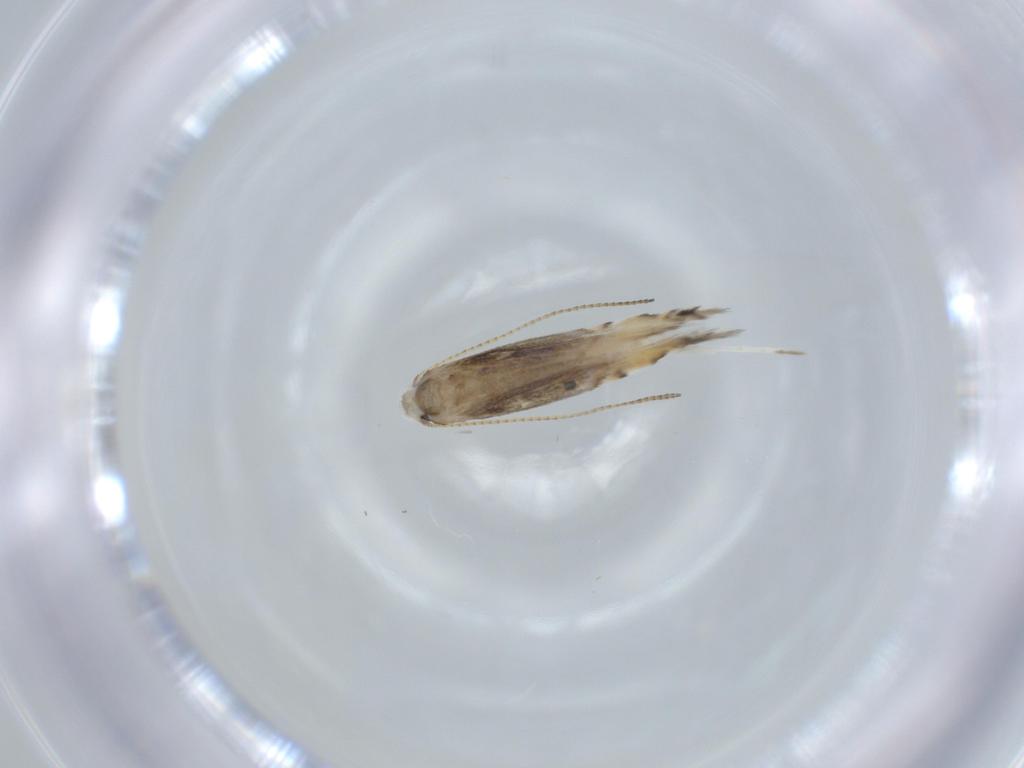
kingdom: Animalia
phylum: Arthropoda
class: Insecta
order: Lepidoptera
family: Gracillariidae
